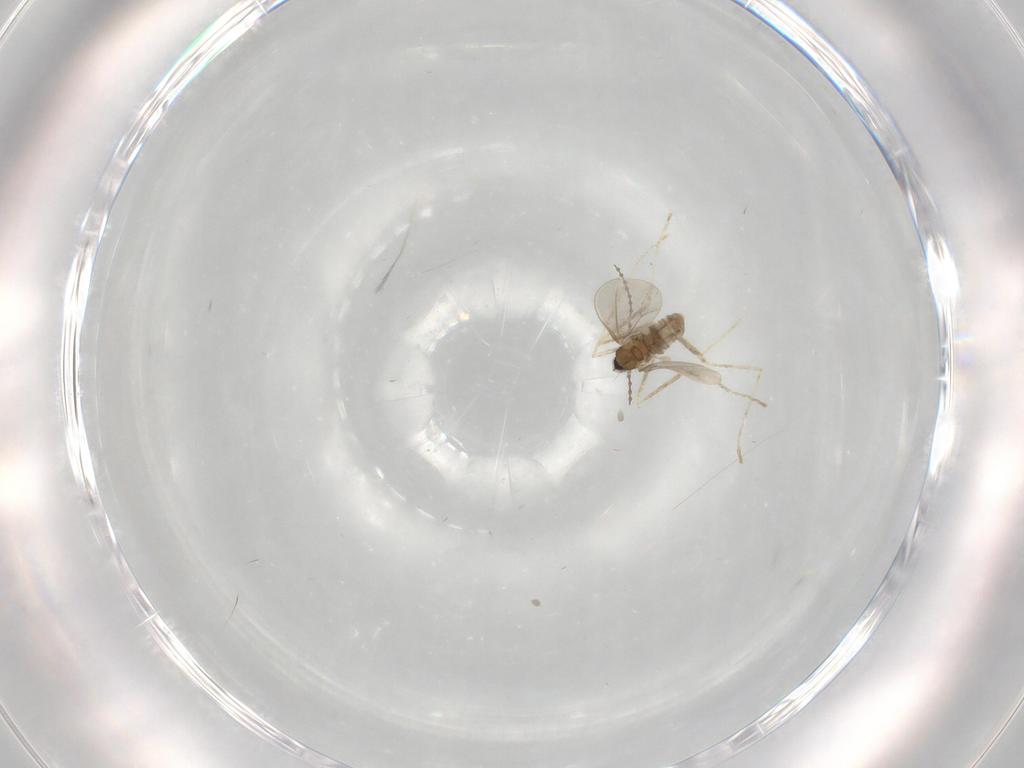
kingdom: Animalia
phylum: Arthropoda
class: Insecta
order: Diptera
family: Cecidomyiidae
